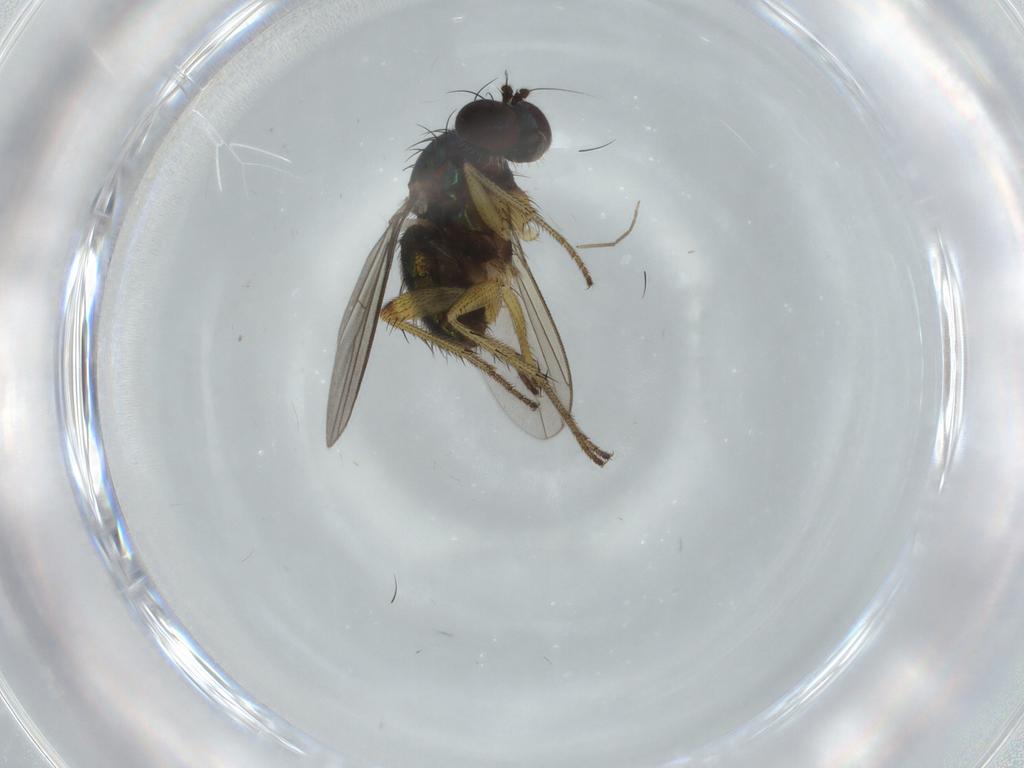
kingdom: Animalia
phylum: Arthropoda
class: Insecta
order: Diptera
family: Dolichopodidae
